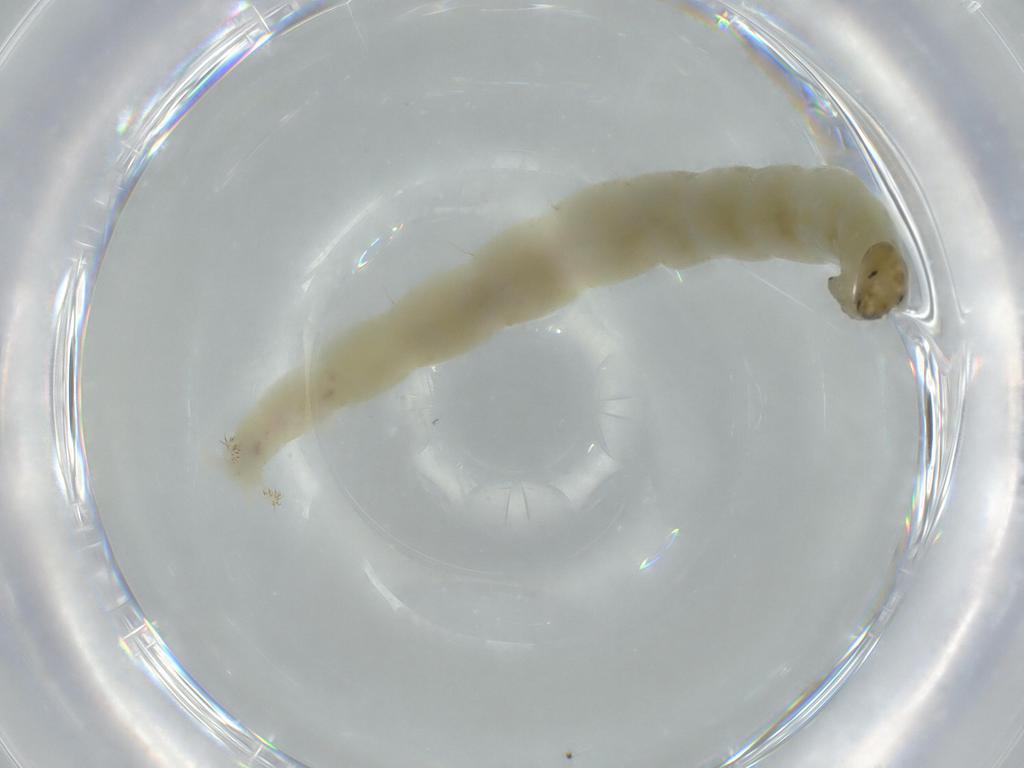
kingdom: Animalia
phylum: Arthropoda
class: Insecta
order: Diptera
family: Chironomidae
